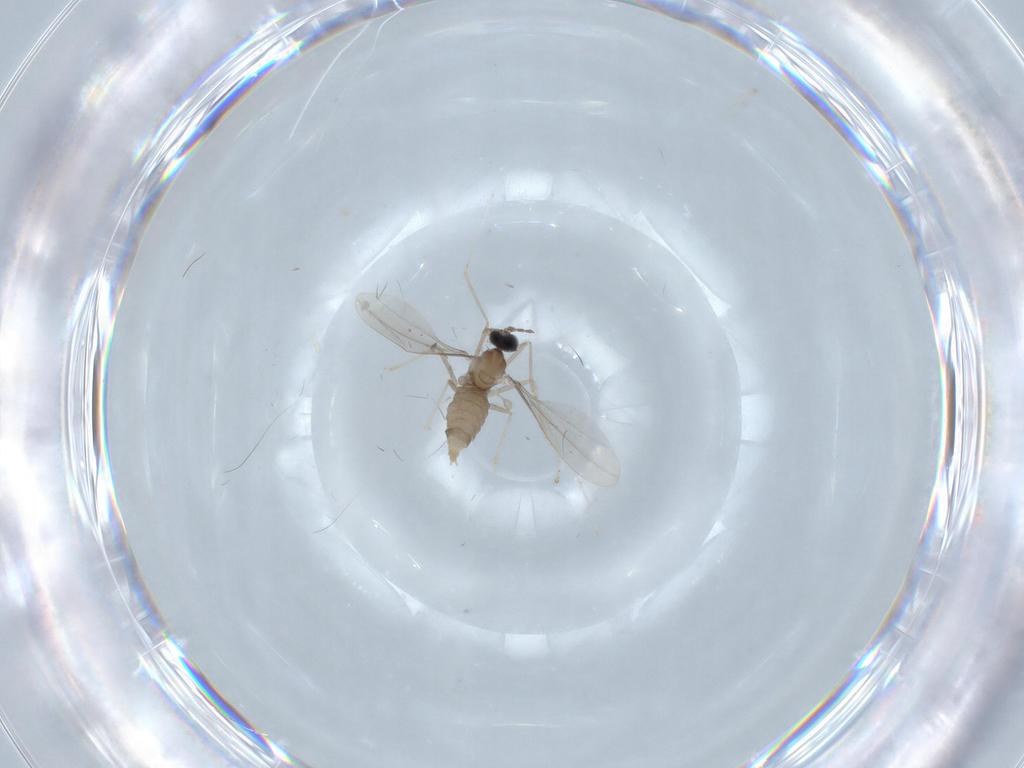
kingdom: Animalia
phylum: Arthropoda
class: Insecta
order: Diptera
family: Cecidomyiidae
